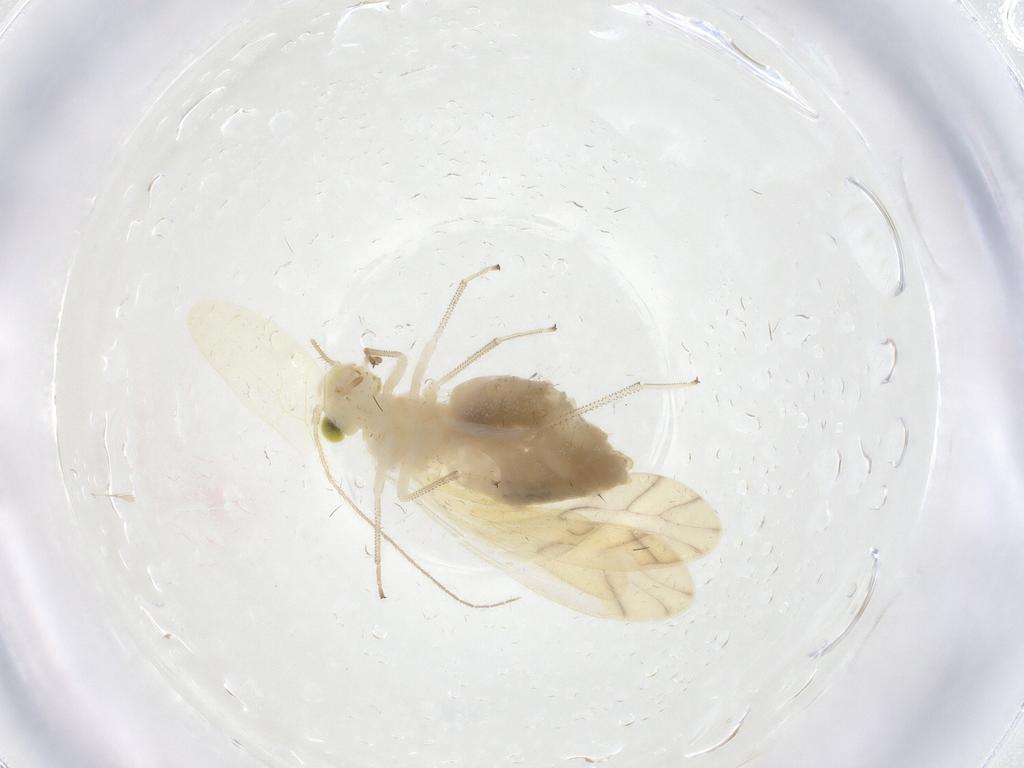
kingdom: Animalia
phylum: Arthropoda
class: Insecta
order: Psocodea
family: Caeciliusidae
